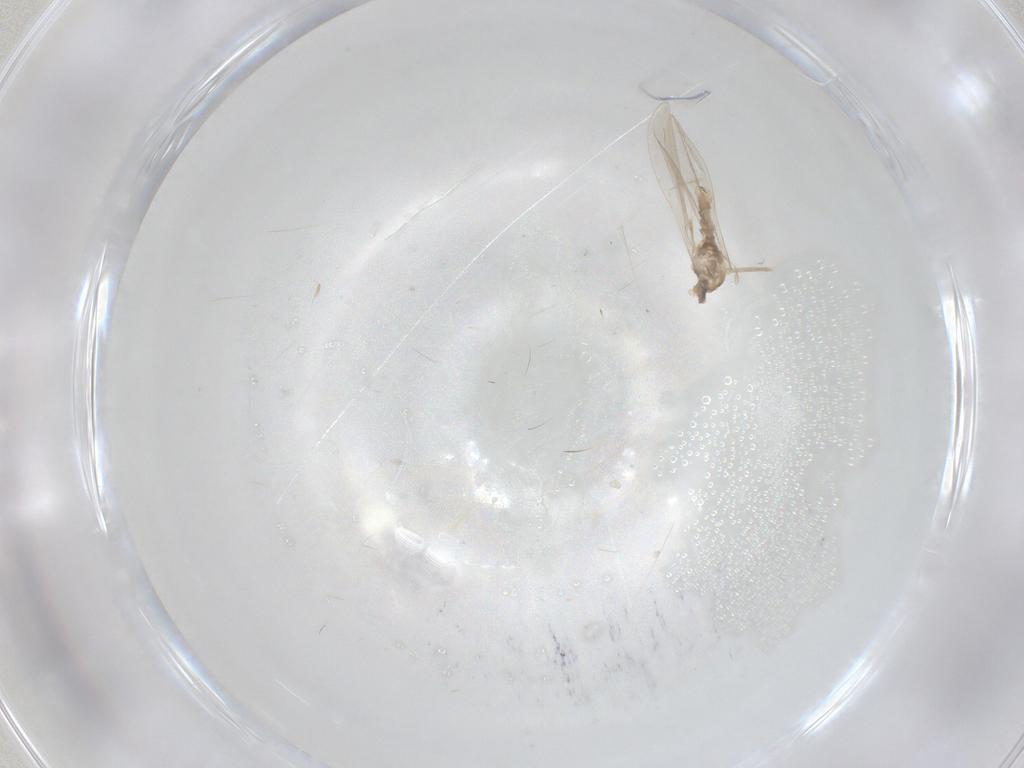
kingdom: Animalia
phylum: Arthropoda
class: Insecta
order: Diptera
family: Cecidomyiidae
